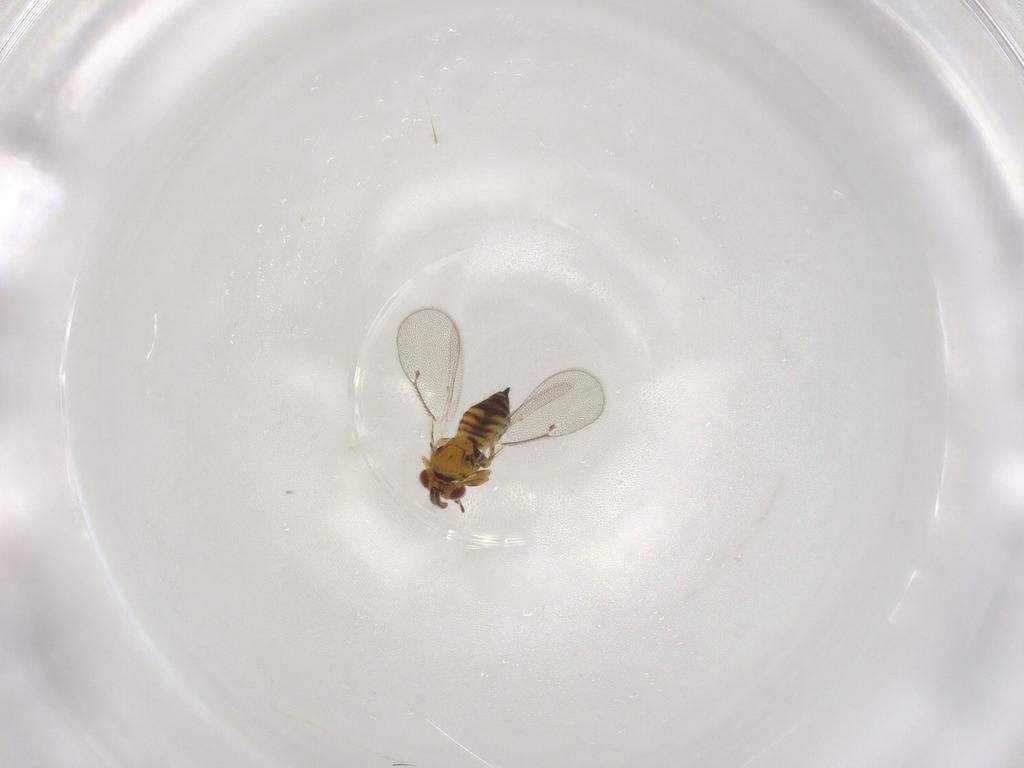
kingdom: Animalia
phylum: Arthropoda
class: Insecta
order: Hymenoptera
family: Eulophidae
